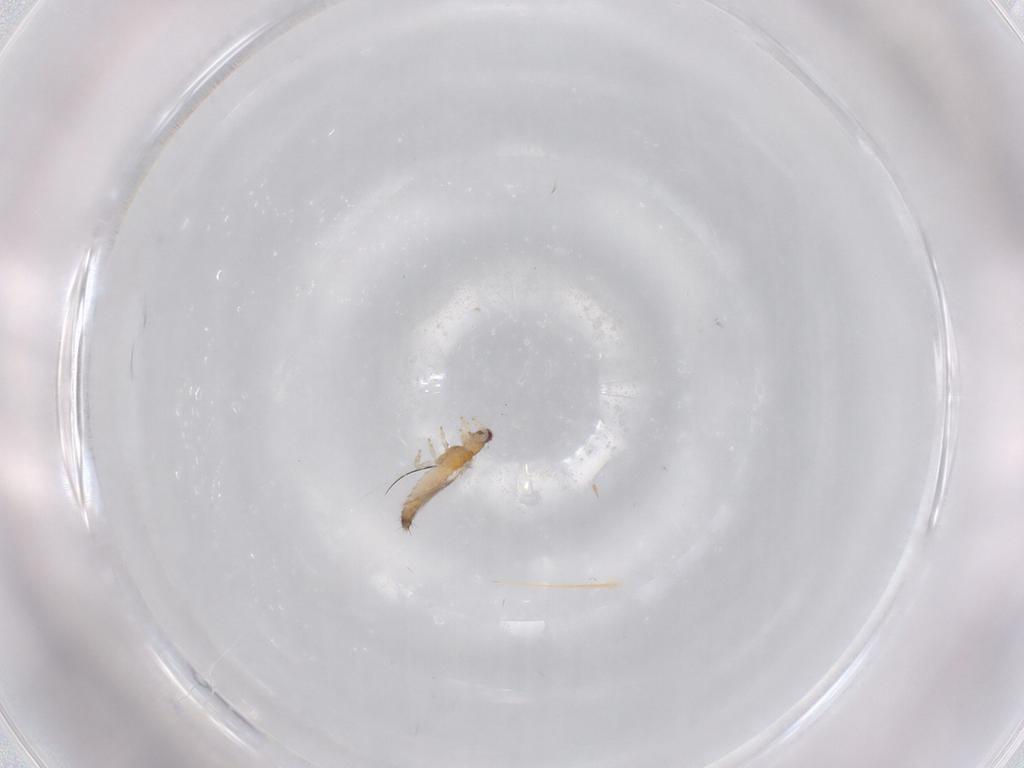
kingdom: Animalia
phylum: Arthropoda
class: Insecta
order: Thysanoptera
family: Thripidae
